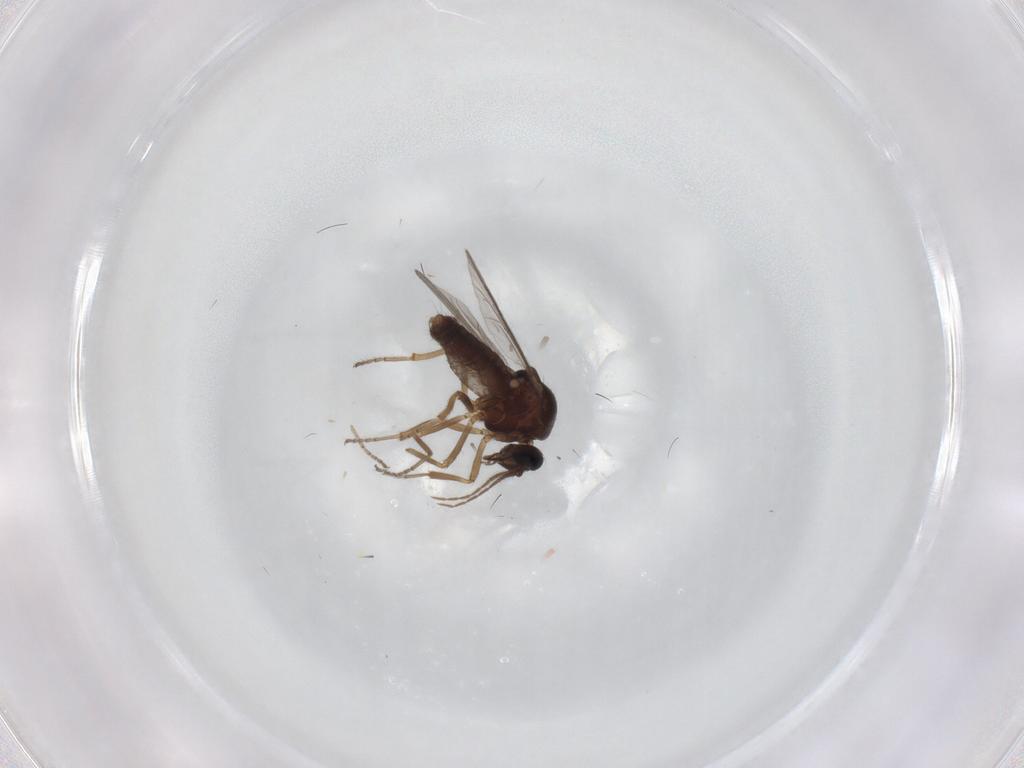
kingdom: Animalia
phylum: Arthropoda
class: Insecta
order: Diptera
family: Ceratopogonidae
